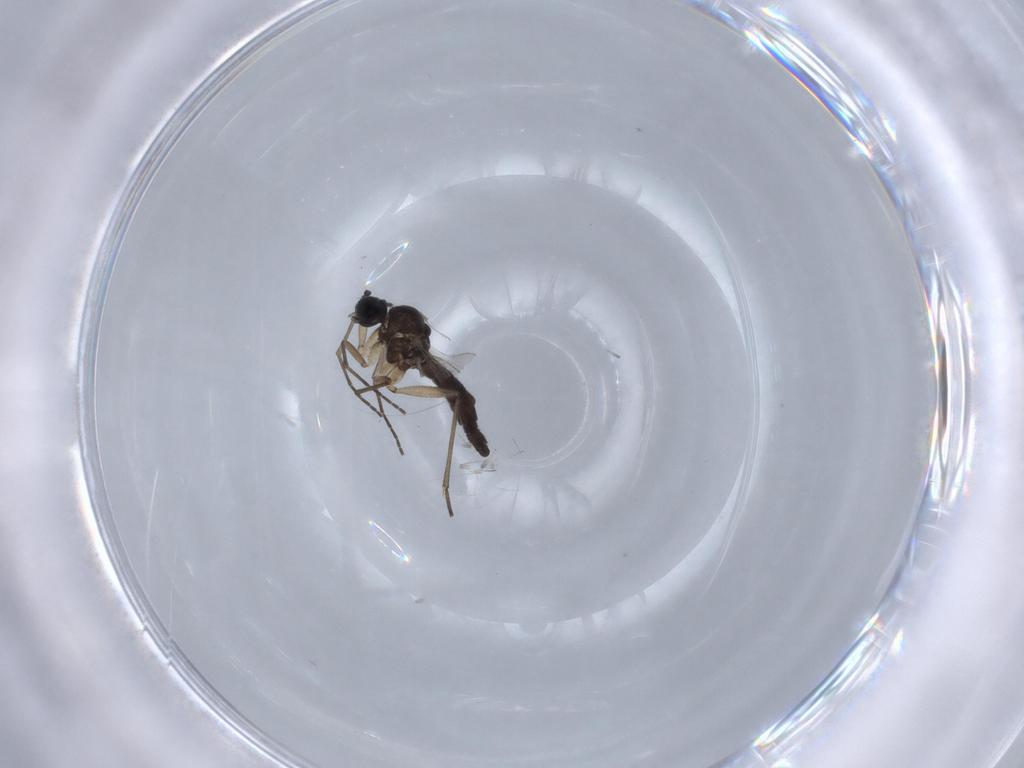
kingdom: Animalia
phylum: Arthropoda
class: Insecta
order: Diptera
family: Sciaridae
